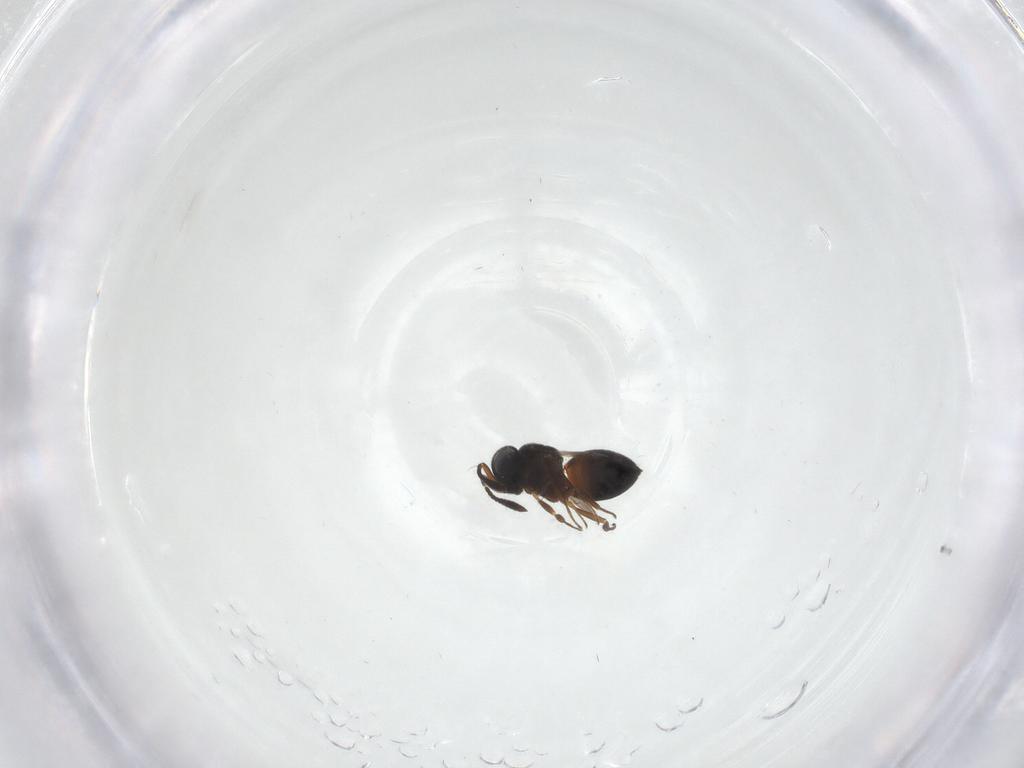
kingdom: Animalia
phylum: Arthropoda
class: Insecta
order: Hymenoptera
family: Scelionidae
